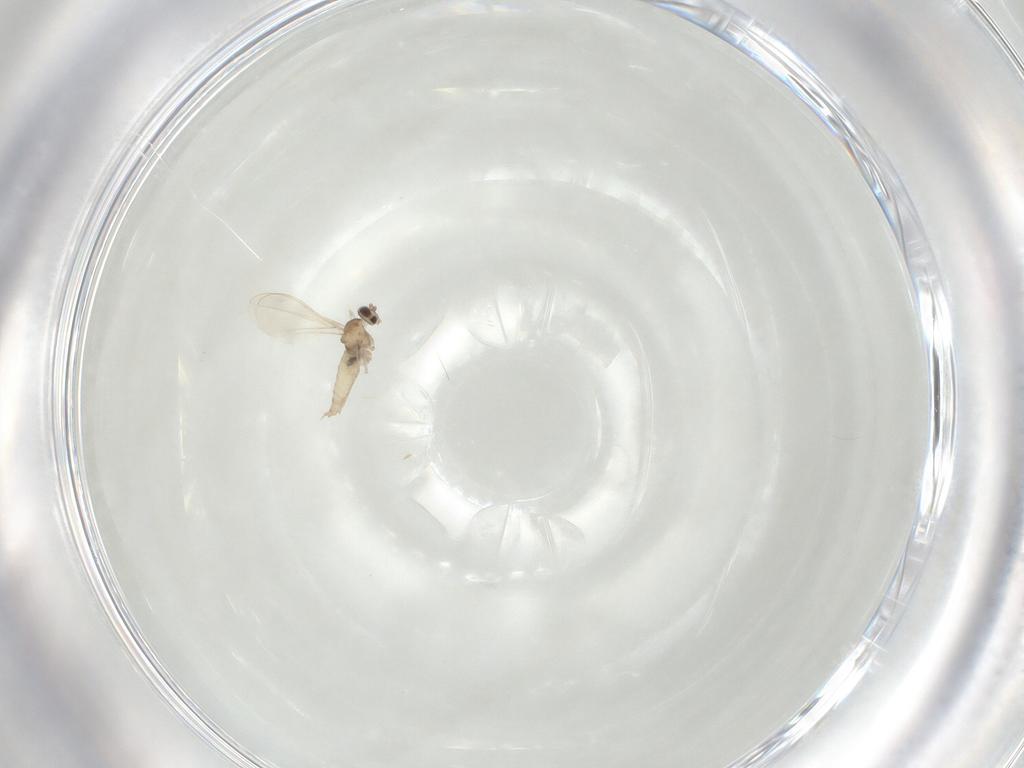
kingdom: Animalia
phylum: Arthropoda
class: Insecta
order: Diptera
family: Cecidomyiidae
